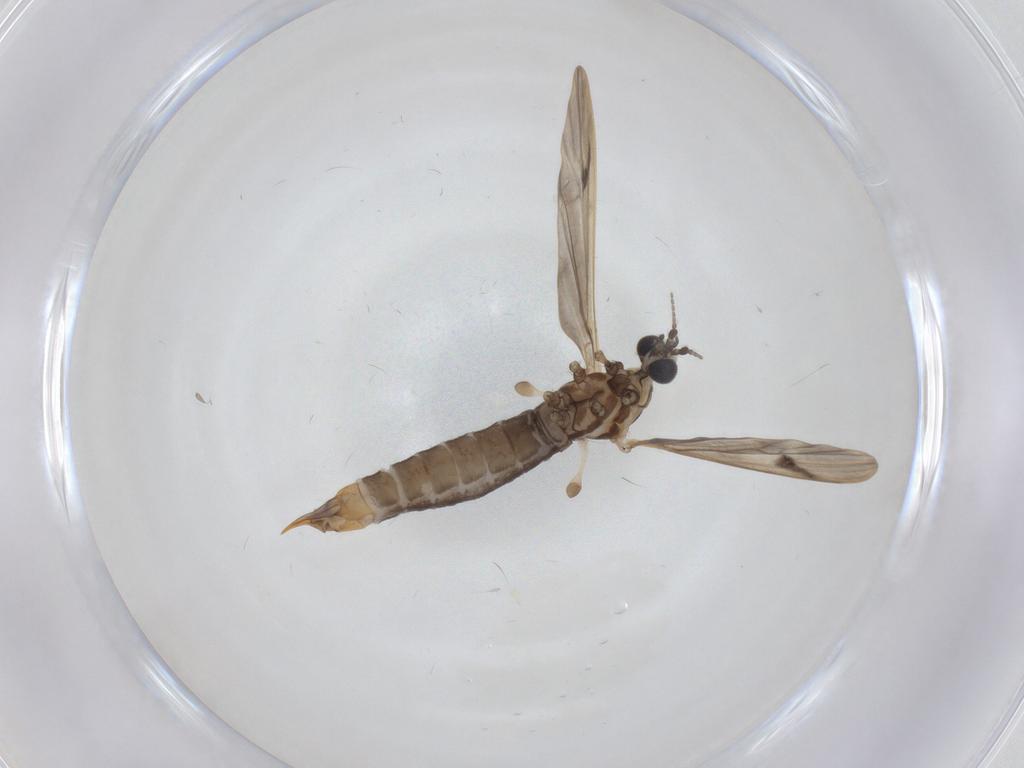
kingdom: Animalia
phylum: Arthropoda
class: Insecta
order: Diptera
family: Limoniidae
